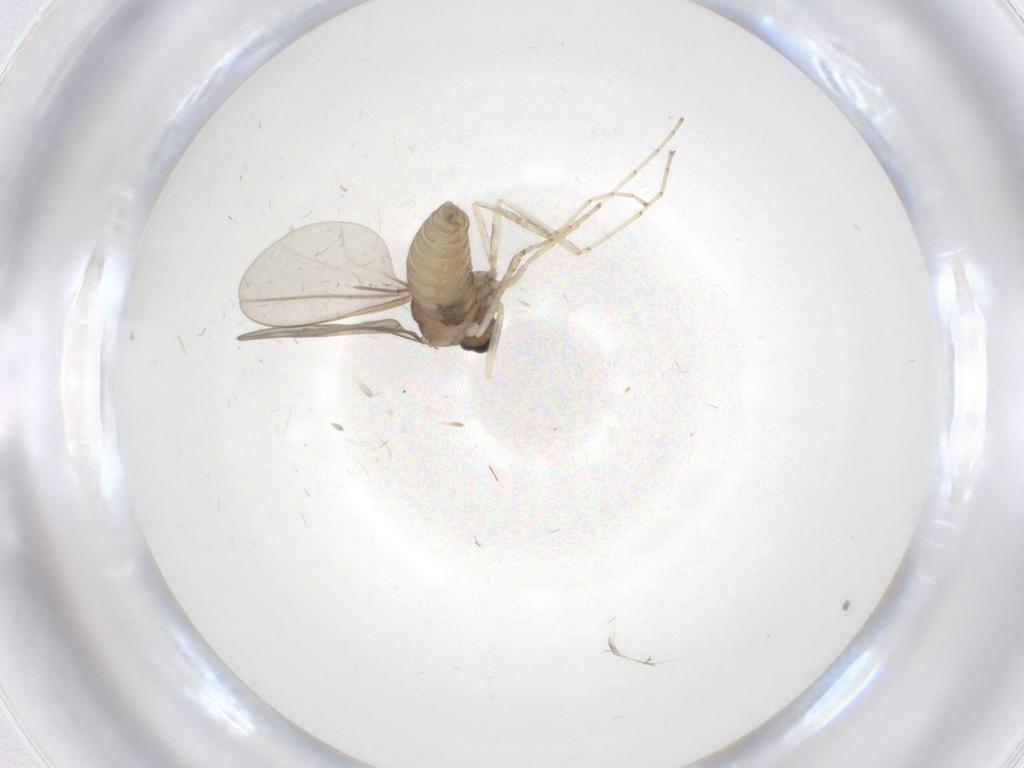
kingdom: Animalia
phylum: Arthropoda
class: Insecta
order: Diptera
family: Cecidomyiidae
